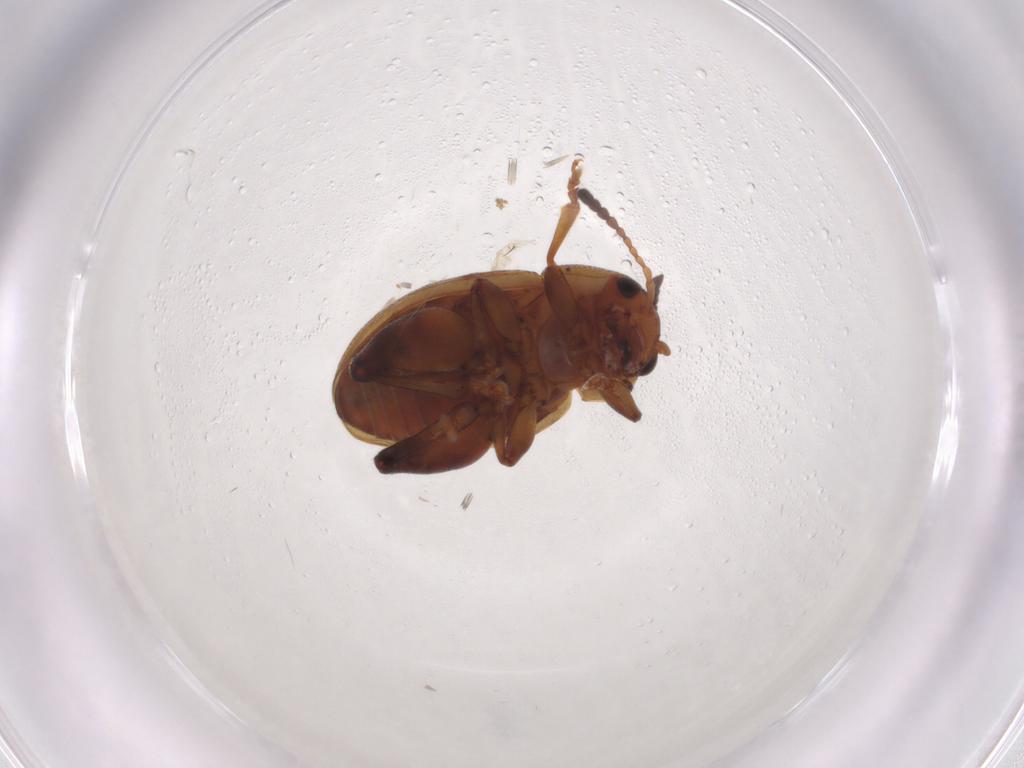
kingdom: Animalia
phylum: Arthropoda
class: Insecta
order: Coleoptera
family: Chrysomelidae
